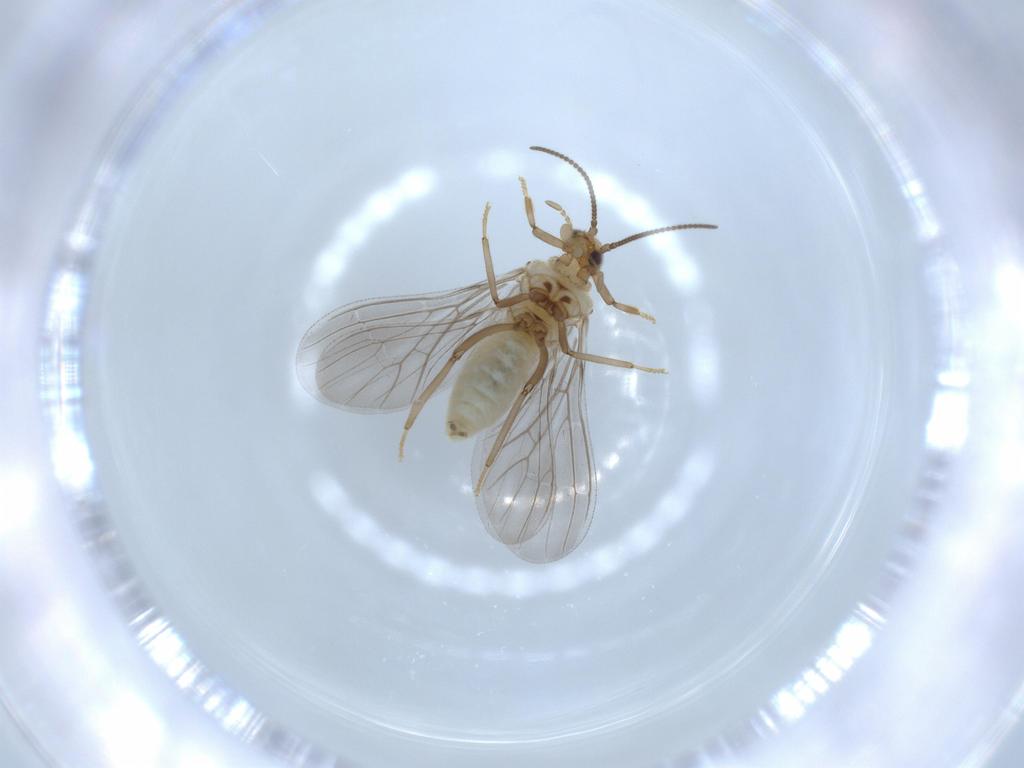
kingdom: Animalia
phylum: Arthropoda
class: Insecta
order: Neuroptera
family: Coniopterygidae
